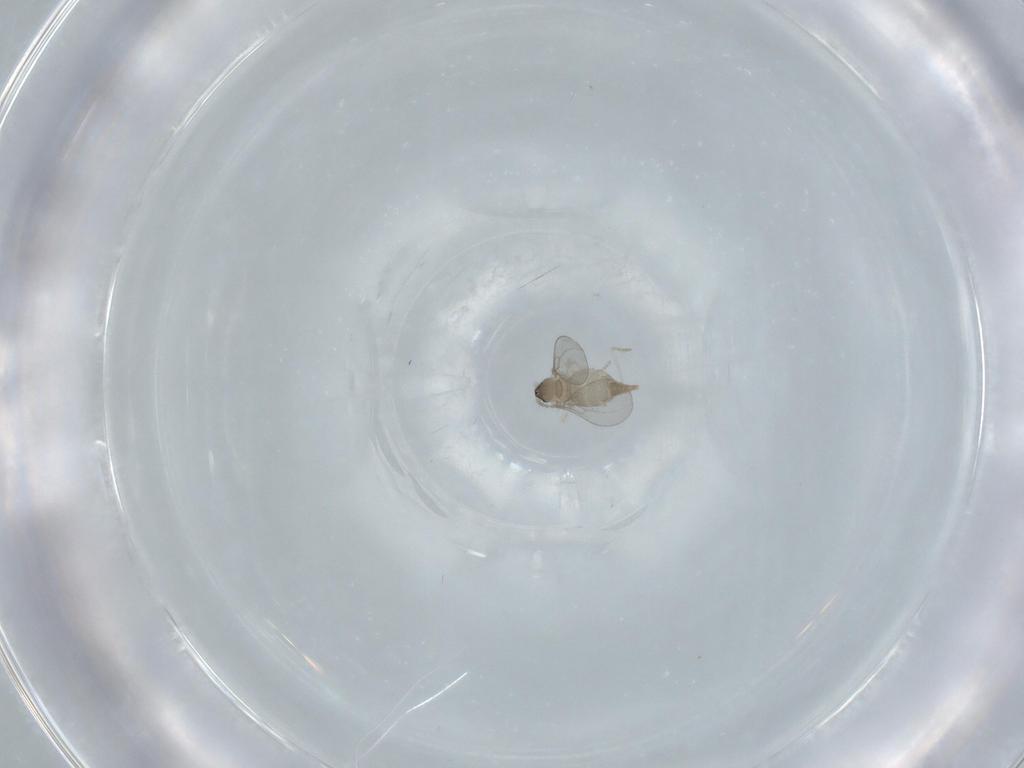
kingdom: Animalia
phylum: Arthropoda
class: Insecta
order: Diptera
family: Cecidomyiidae
